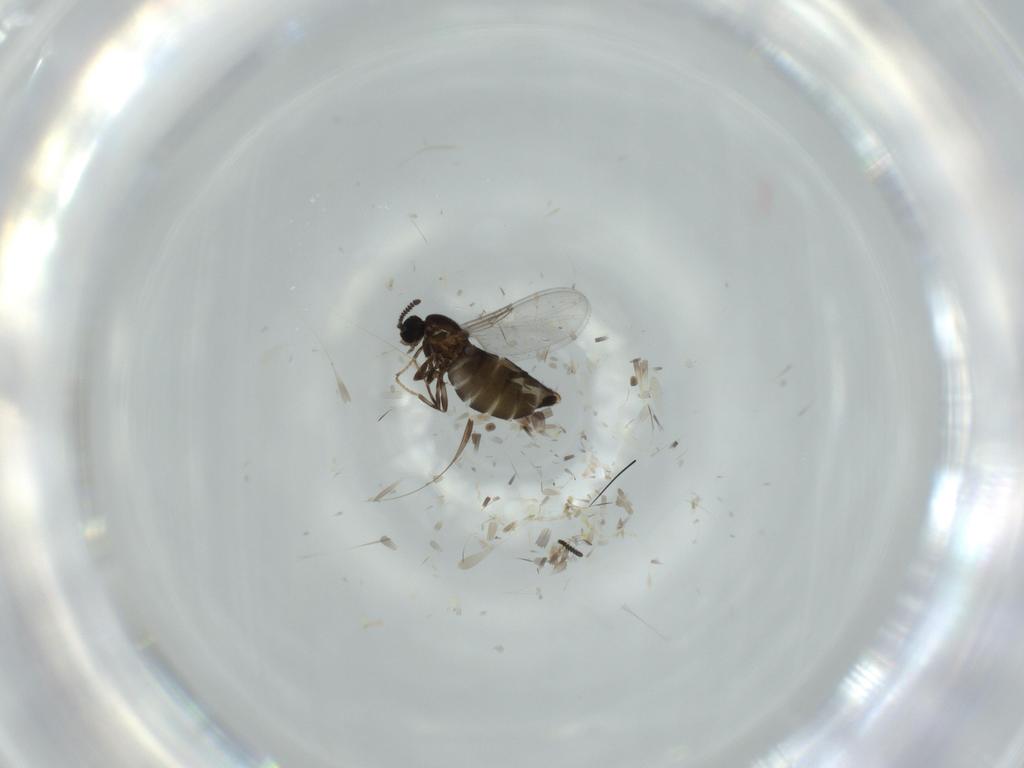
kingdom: Animalia
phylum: Arthropoda
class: Insecta
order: Diptera
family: Scatopsidae
